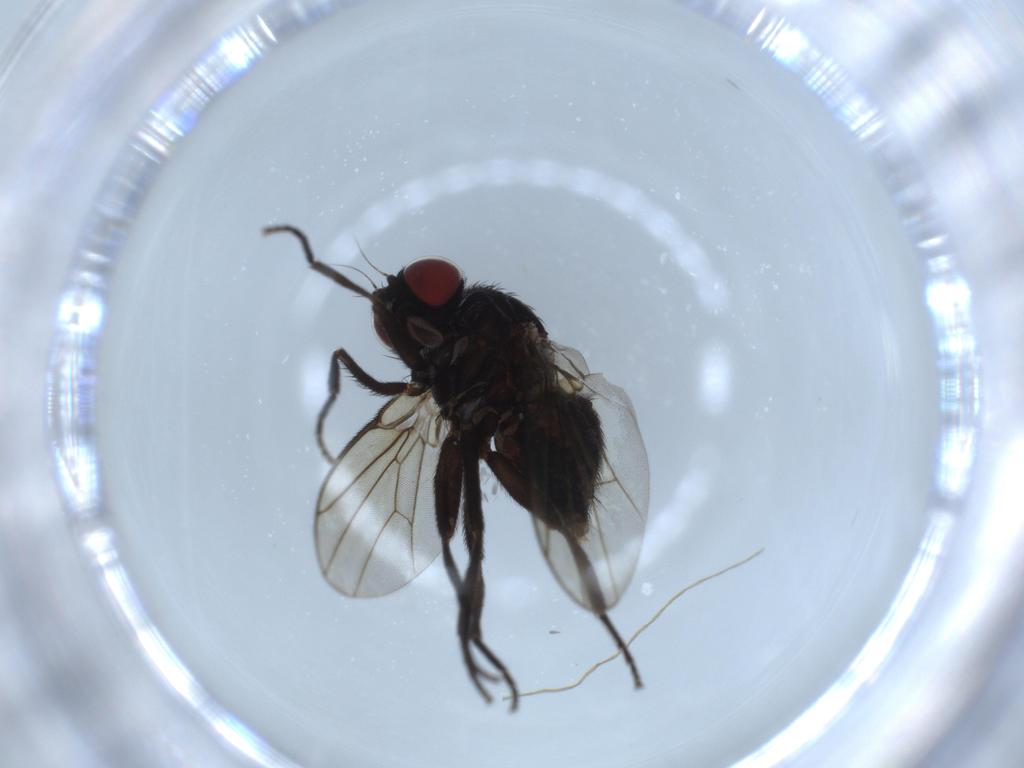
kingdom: Animalia
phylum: Arthropoda
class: Insecta
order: Diptera
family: Agromyzidae
